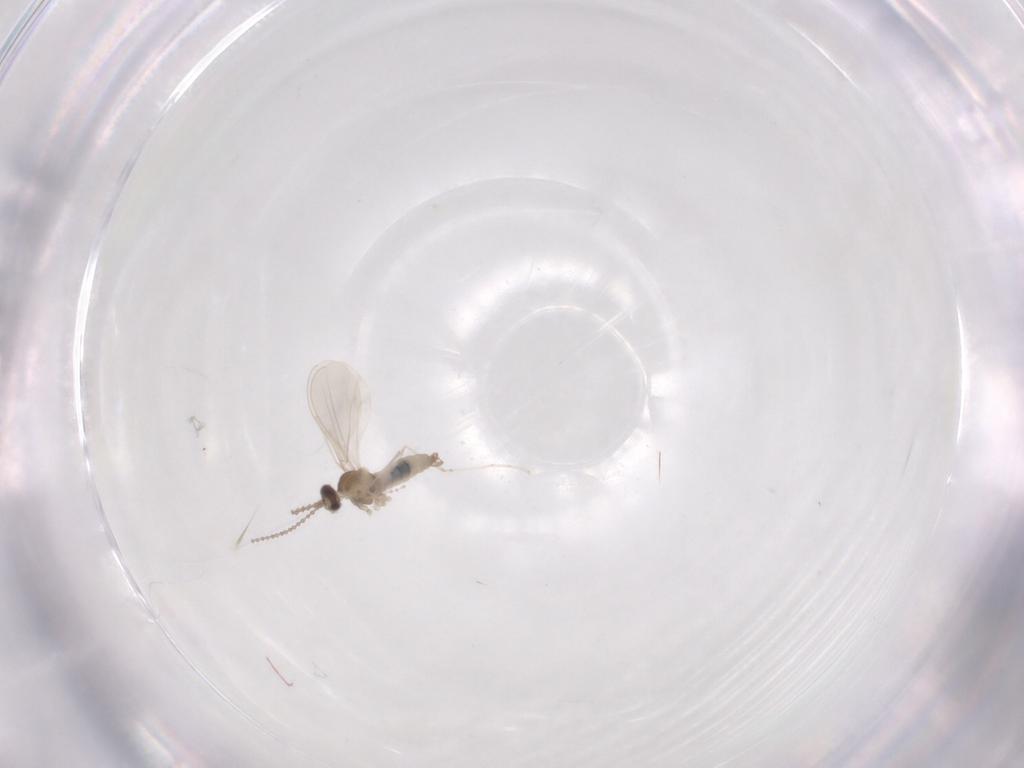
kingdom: Animalia
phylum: Arthropoda
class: Insecta
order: Diptera
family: Cecidomyiidae
